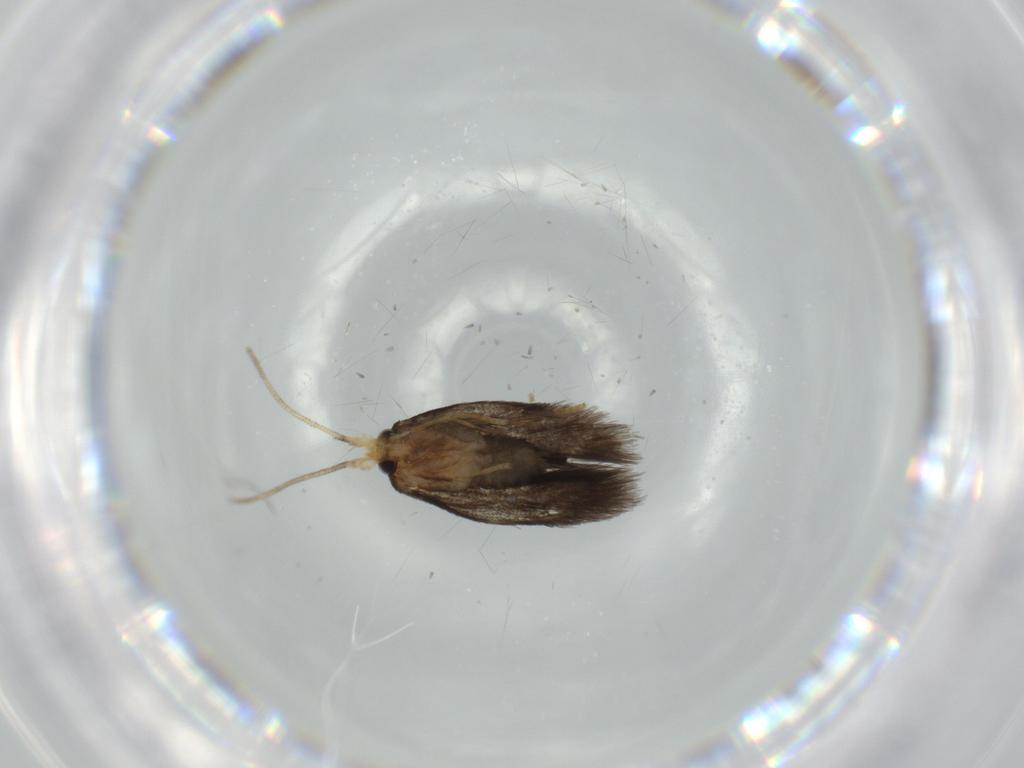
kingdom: Animalia
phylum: Arthropoda
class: Insecta
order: Lepidoptera
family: Nepticulidae
